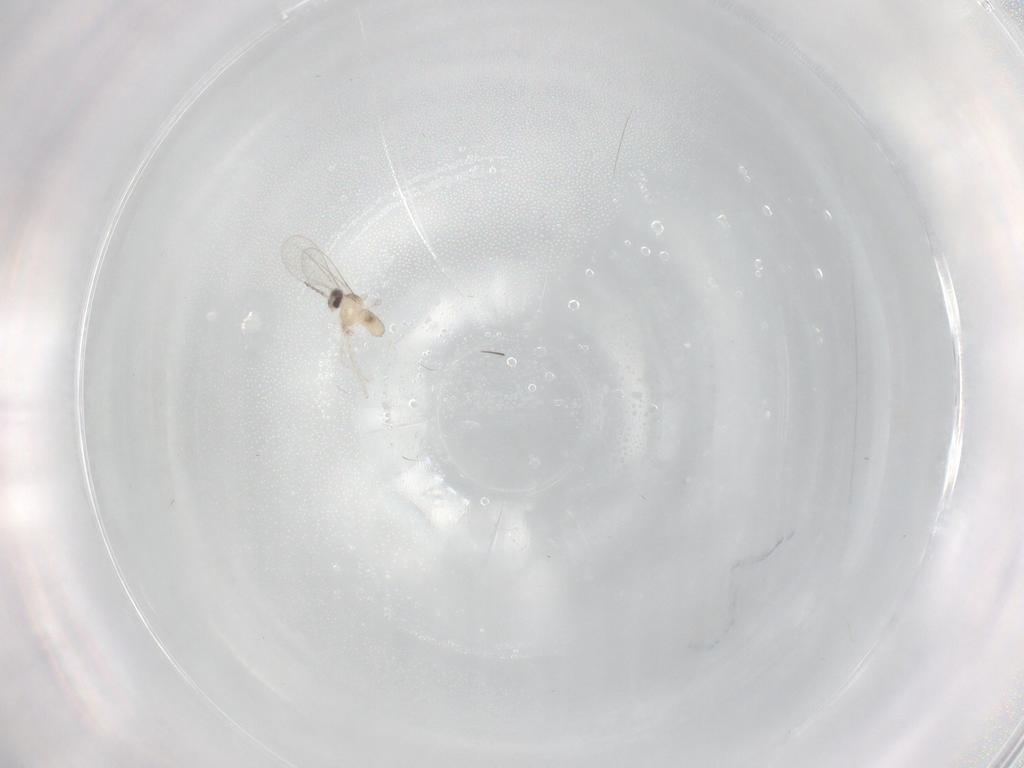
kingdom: Animalia
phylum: Arthropoda
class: Insecta
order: Diptera
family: Cecidomyiidae
